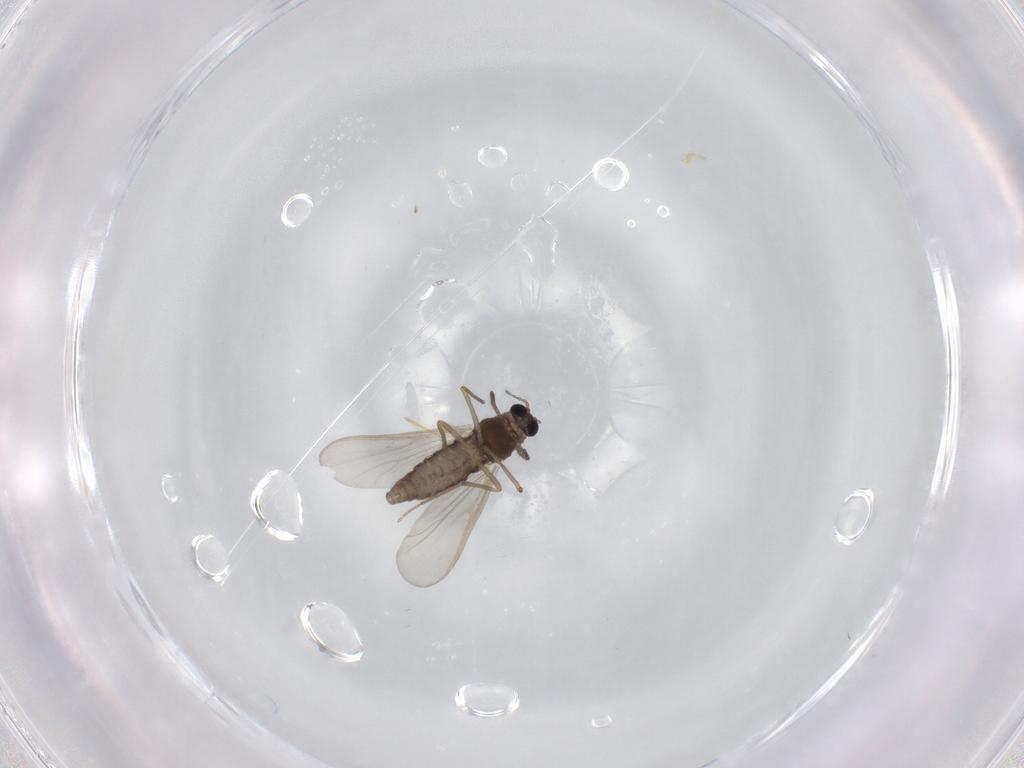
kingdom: Animalia
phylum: Arthropoda
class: Insecta
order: Diptera
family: Chironomidae
